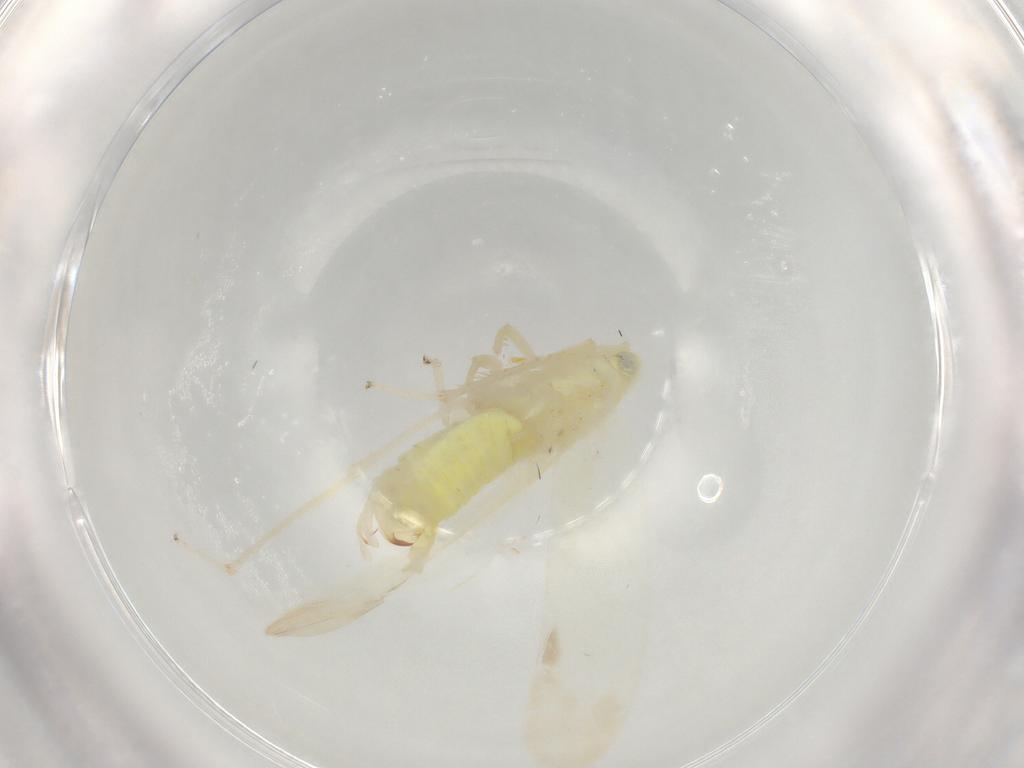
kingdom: Animalia
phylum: Arthropoda
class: Insecta
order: Hemiptera
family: Cicadellidae
